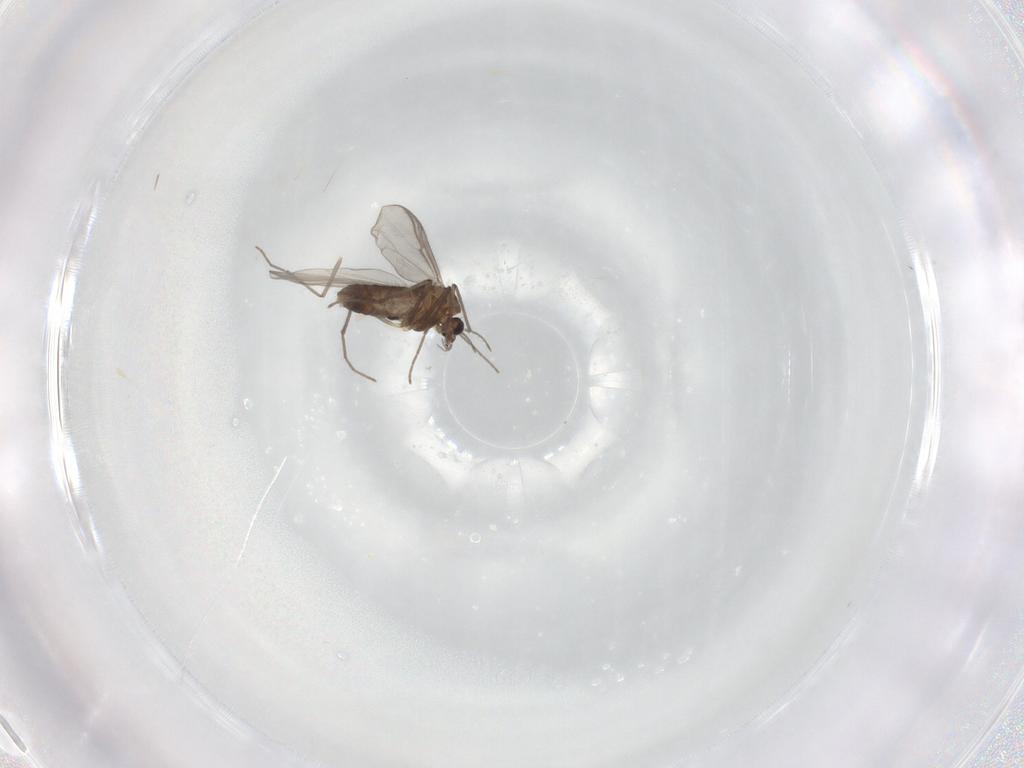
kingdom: Animalia
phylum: Arthropoda
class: Insecta
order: Diptera
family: Chironomidae
